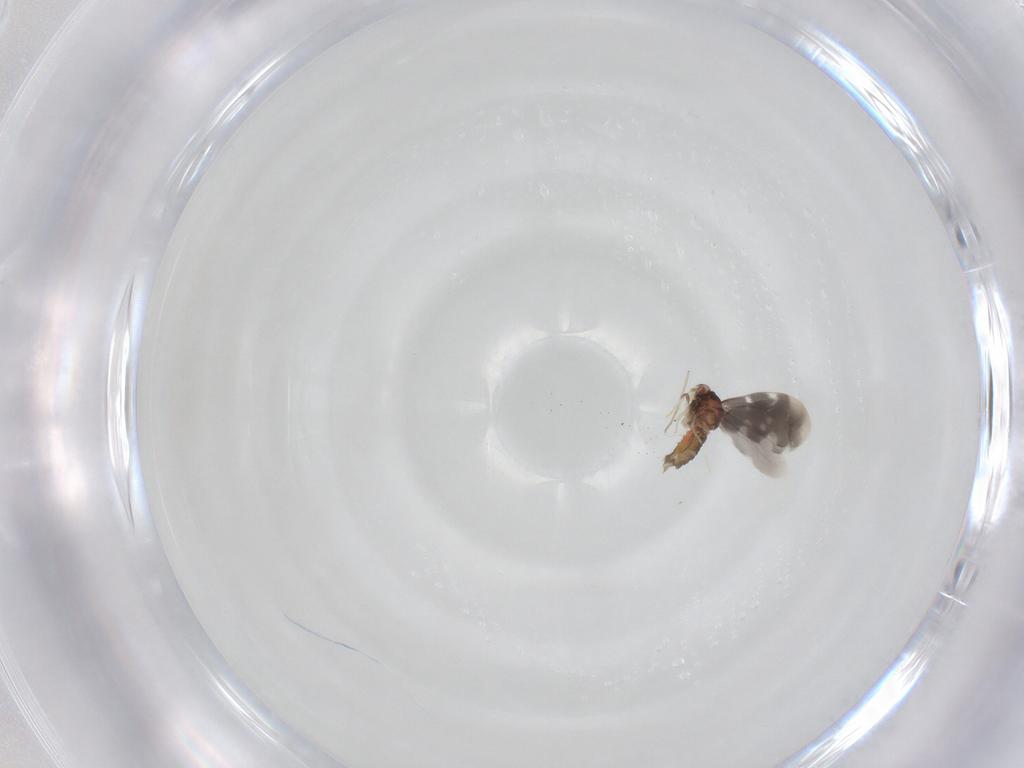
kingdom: Animalia
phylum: Arthropoda
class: Insecta
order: Hemiptera
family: Aleyrodidae
